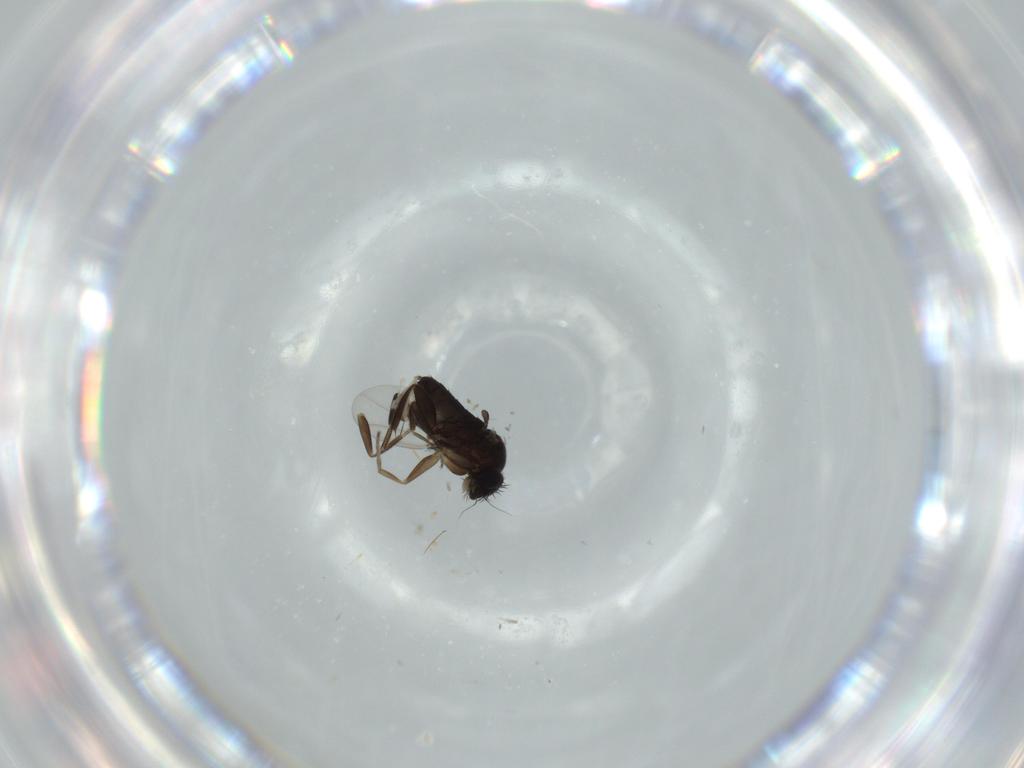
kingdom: Animalia
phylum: Arthropoda
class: Insecta
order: Diptera
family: Cecidomyiidae
